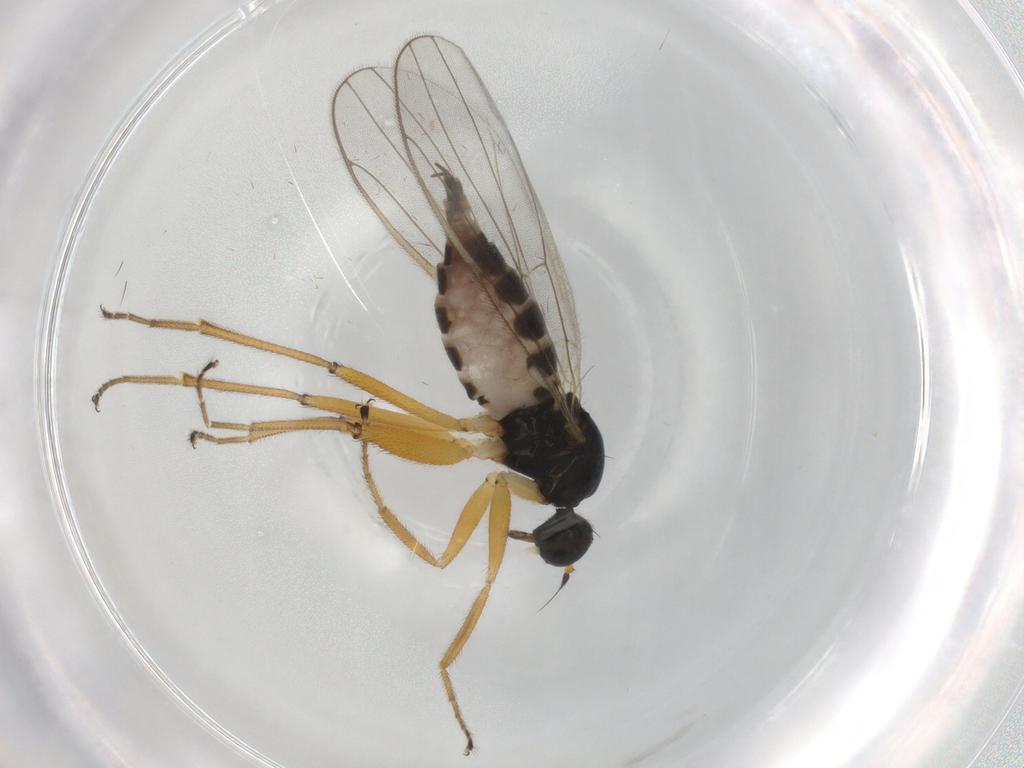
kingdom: Animalia
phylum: Arthropoda
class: Insecta
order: Diptera
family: Hybotidae
